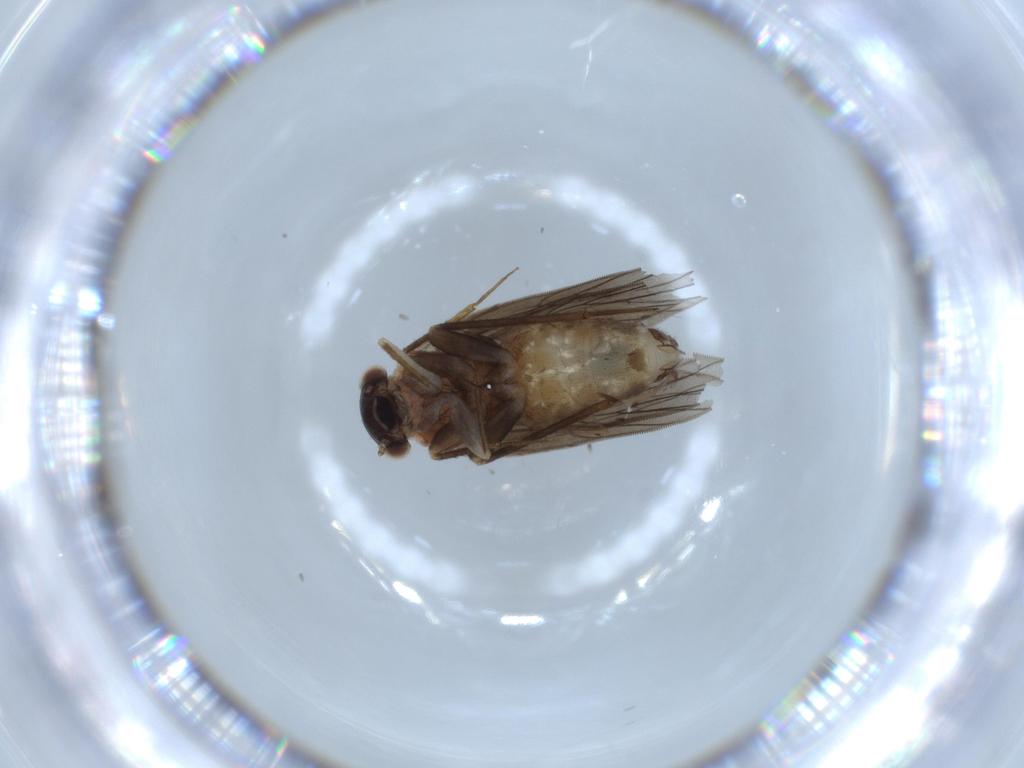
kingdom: Animalia
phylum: Arthropoda
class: Insecta
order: Psocodea
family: Lepidopsocidae
